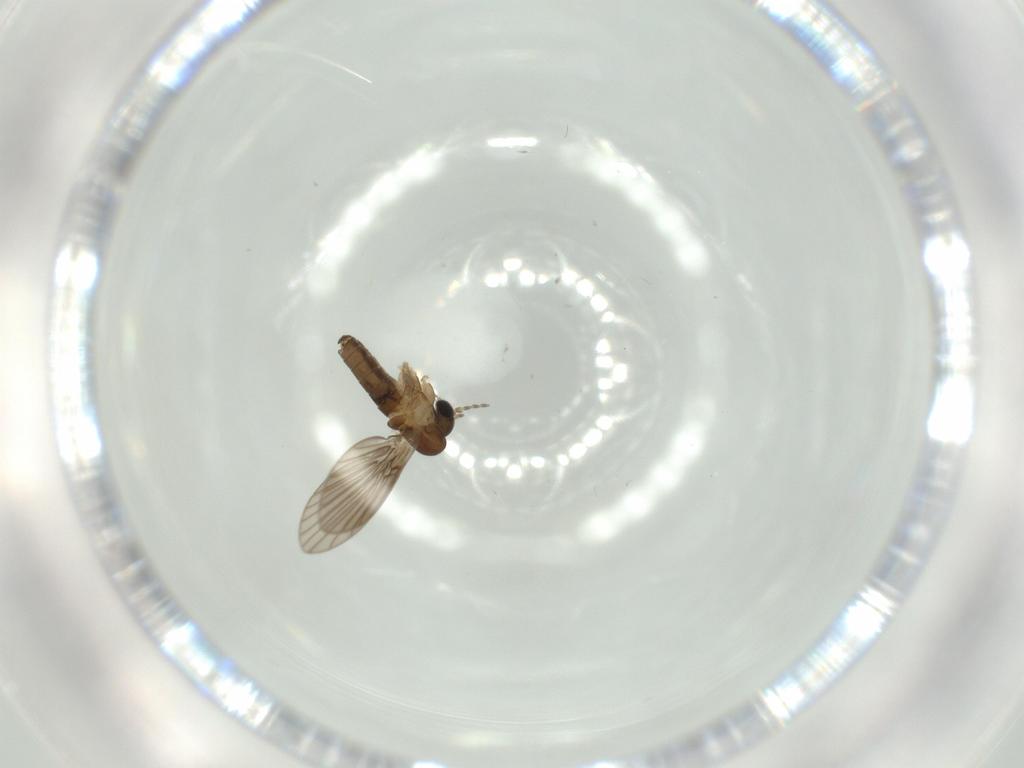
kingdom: Animalia
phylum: Arthropoda
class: Insecta
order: Diptera
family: Psychodidae
